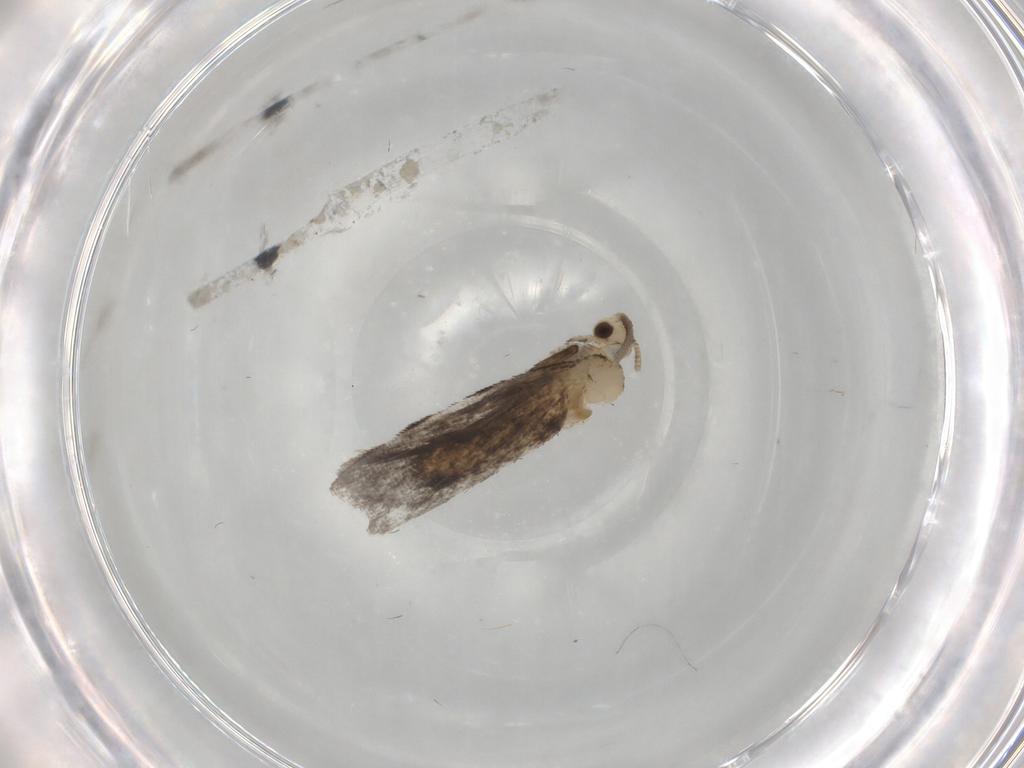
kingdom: Animalia
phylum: Arthropoda
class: Insecta
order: Lepidoptera
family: Dryadaulidae
